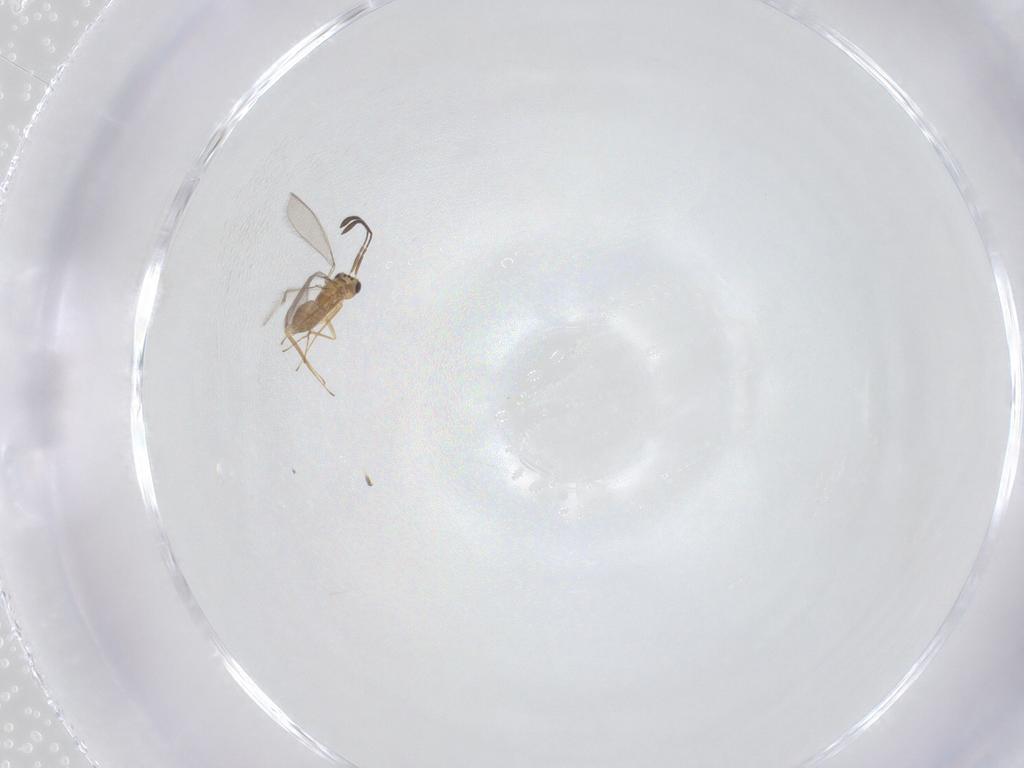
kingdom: Animalia
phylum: Arthropoda
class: Insecta
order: Hymenoptera
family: Mymaridae
